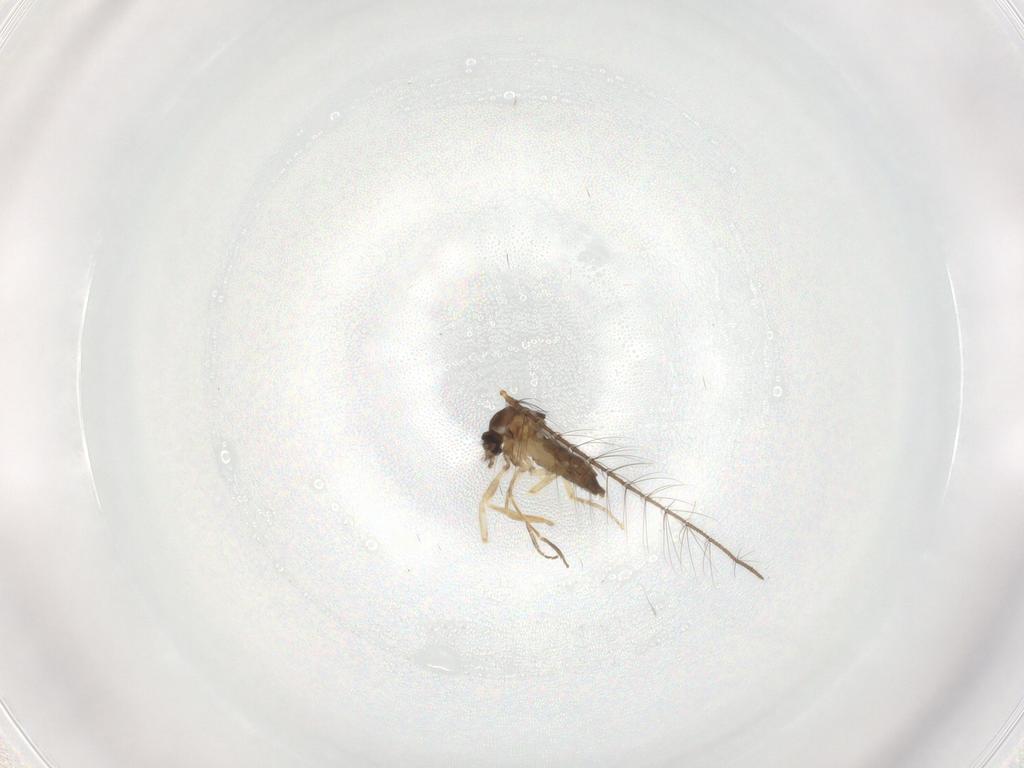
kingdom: Animalia
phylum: Arthropoda
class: Insecta
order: Diptera
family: Ceratopogonidae
